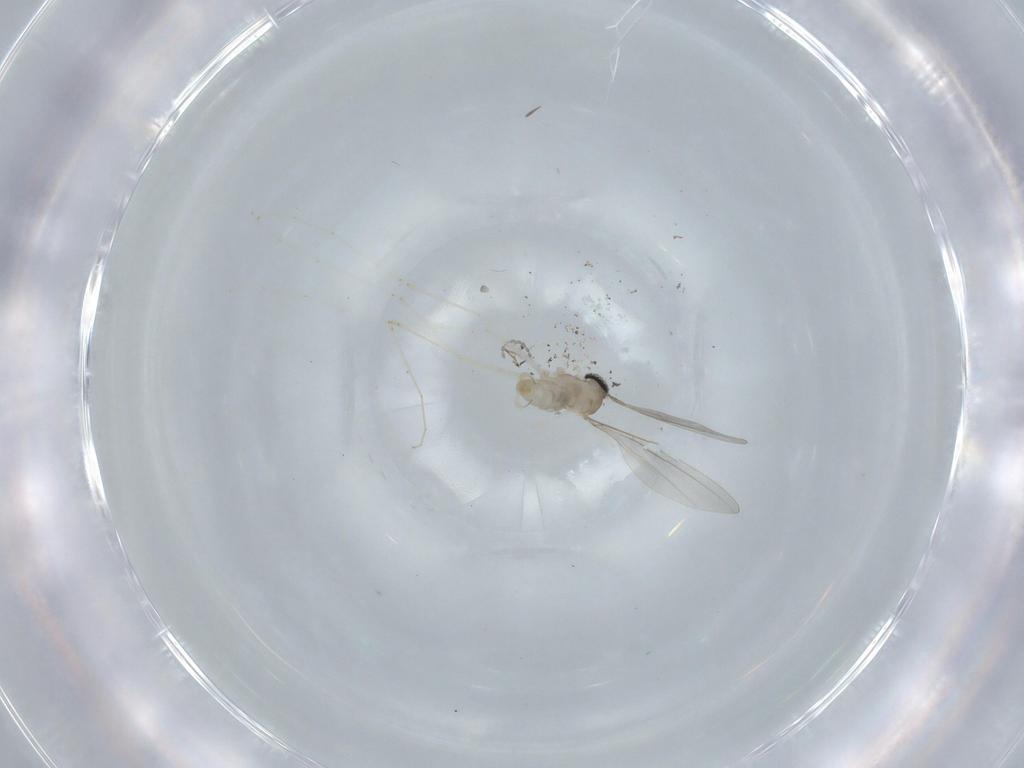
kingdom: Animalia
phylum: Arthropoda
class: Insecta
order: Diptera
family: Cecidomyiidae
